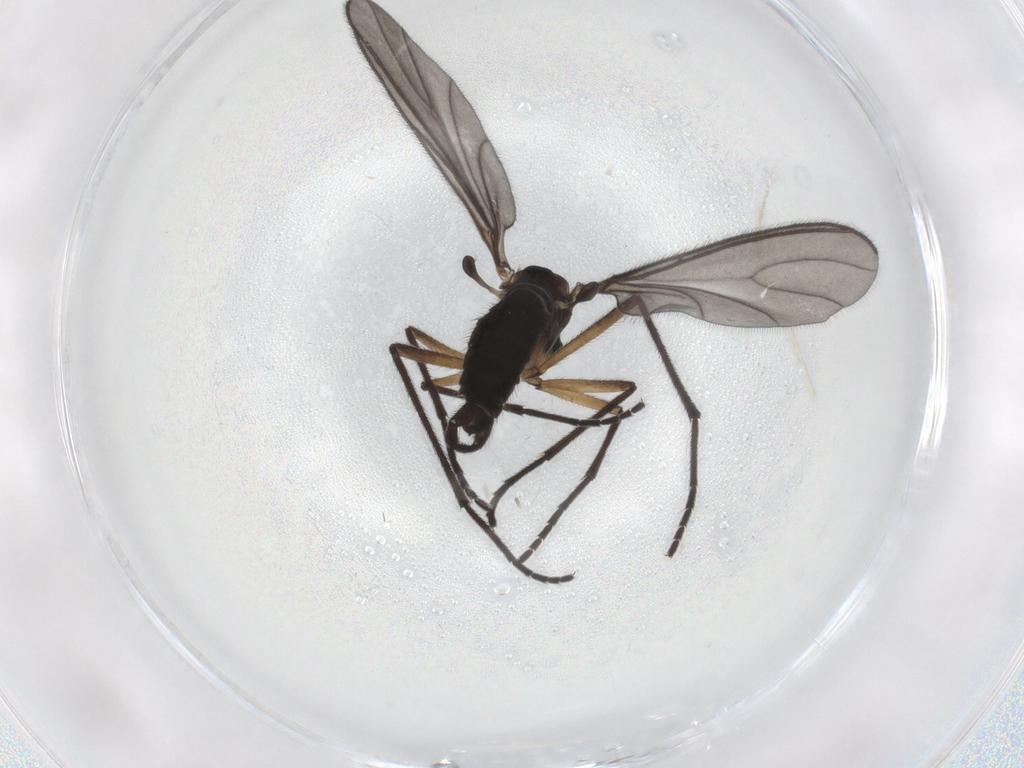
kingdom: Animalia
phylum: Arthropoda
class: Insecta
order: Diptera
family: Sciaridae
